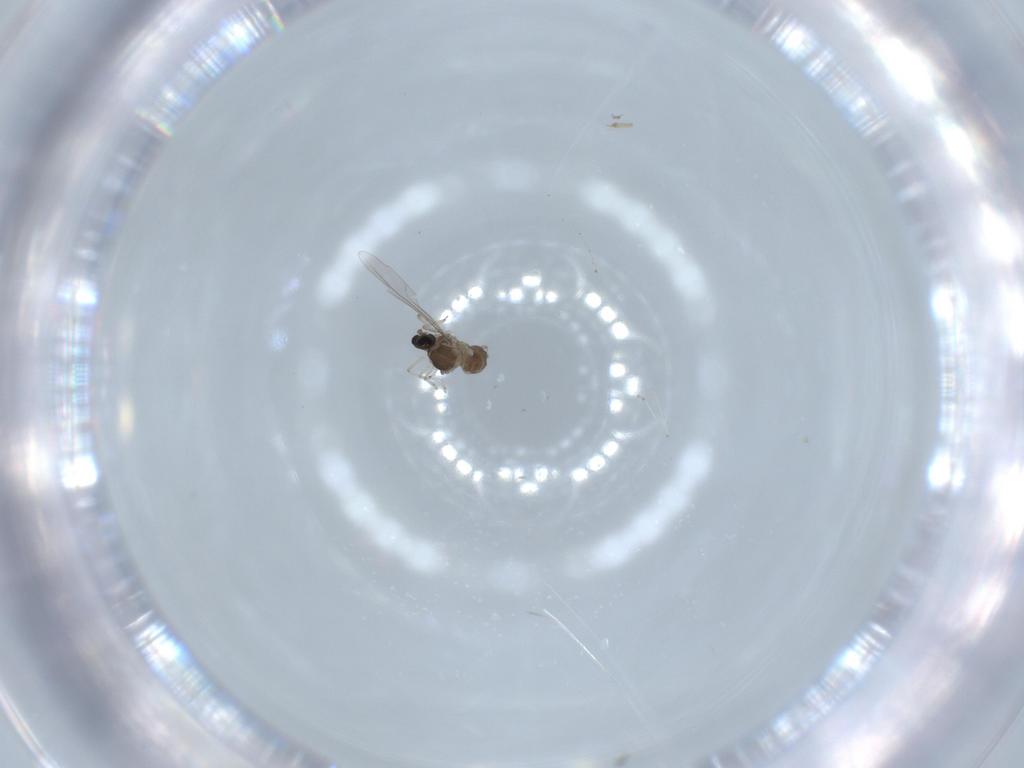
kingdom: Animalia
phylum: Arthropoda
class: Insecta
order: Diptera
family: Cecidomyiidae
